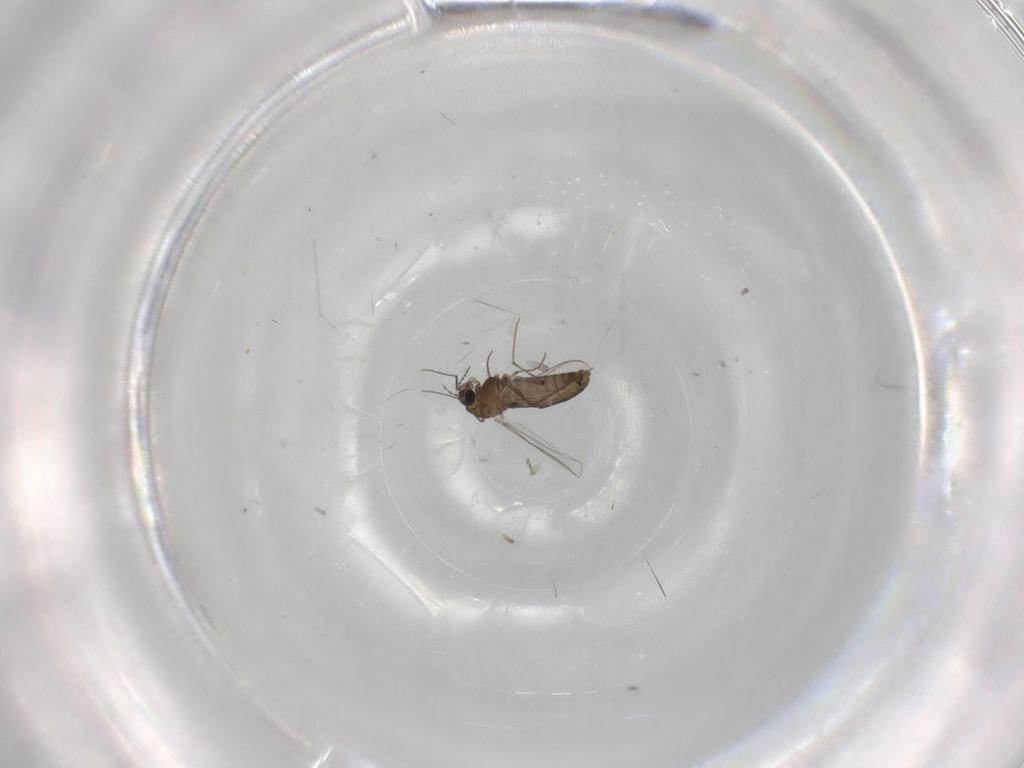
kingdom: Animalia
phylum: Arthropoda
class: Insecta
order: Diptera
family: Chironomidae
